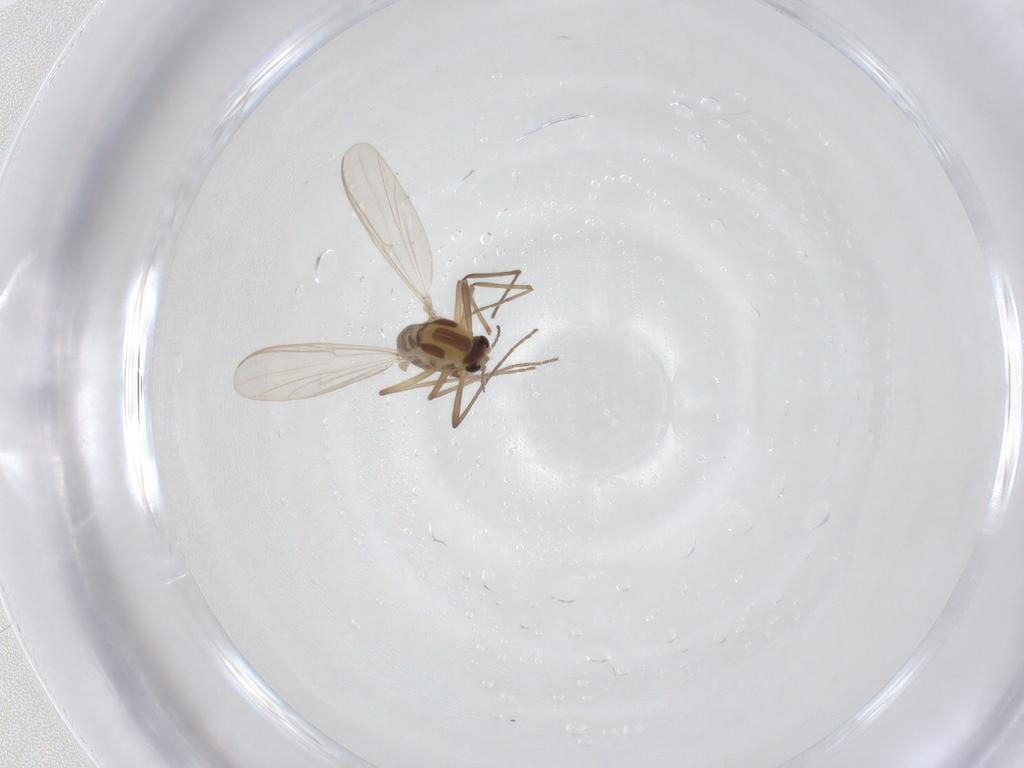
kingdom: Animalia
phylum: Arthropoda
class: Insecta
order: Diptera
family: Chironomidae
